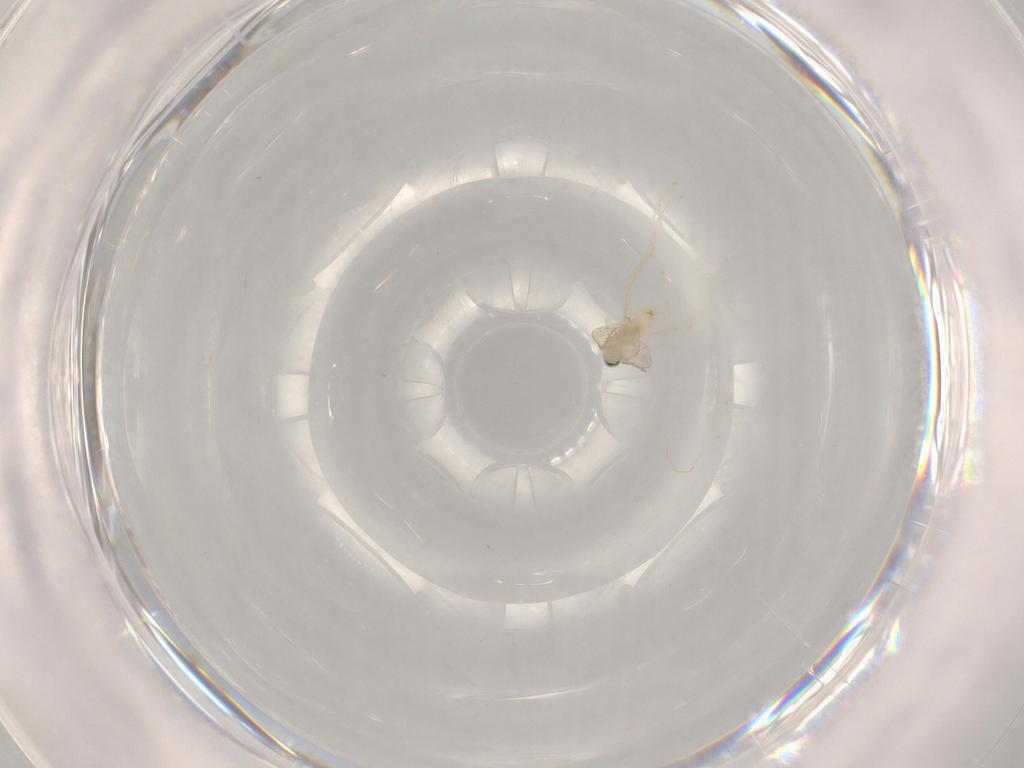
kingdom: Animalia
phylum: Arthropoda
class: Insecta
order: Diptera
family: Cecidomyiidae
